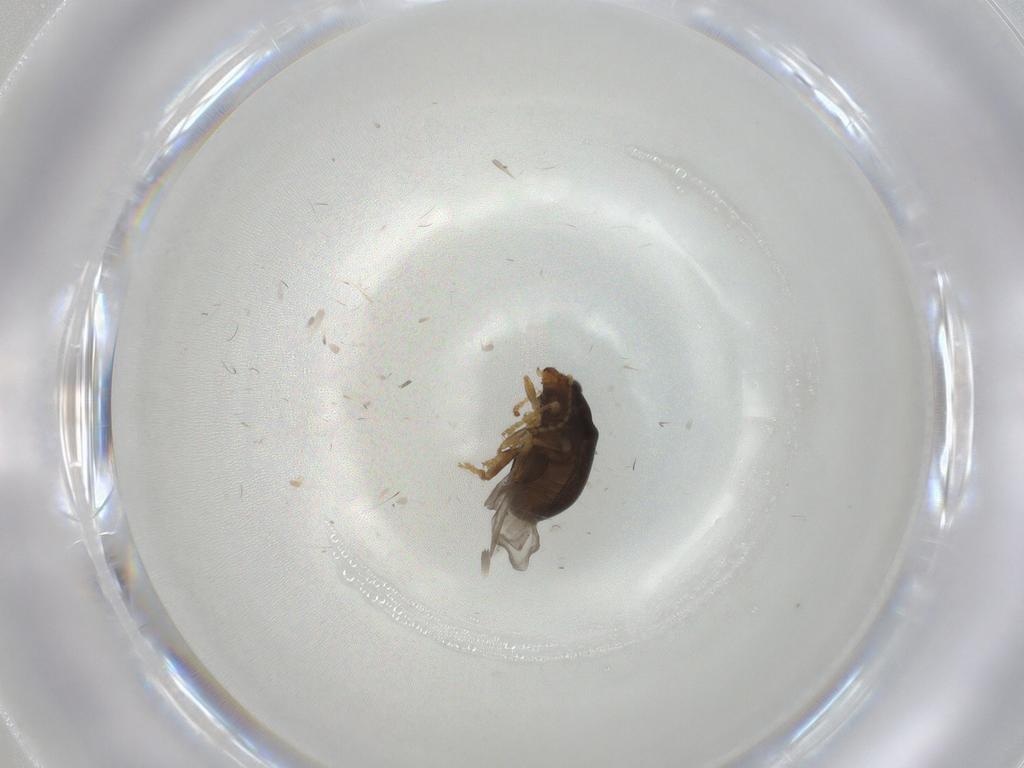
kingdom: Animalia
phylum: Arthropoda
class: Insecta
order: Coleoptera
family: Chrysomelidae
